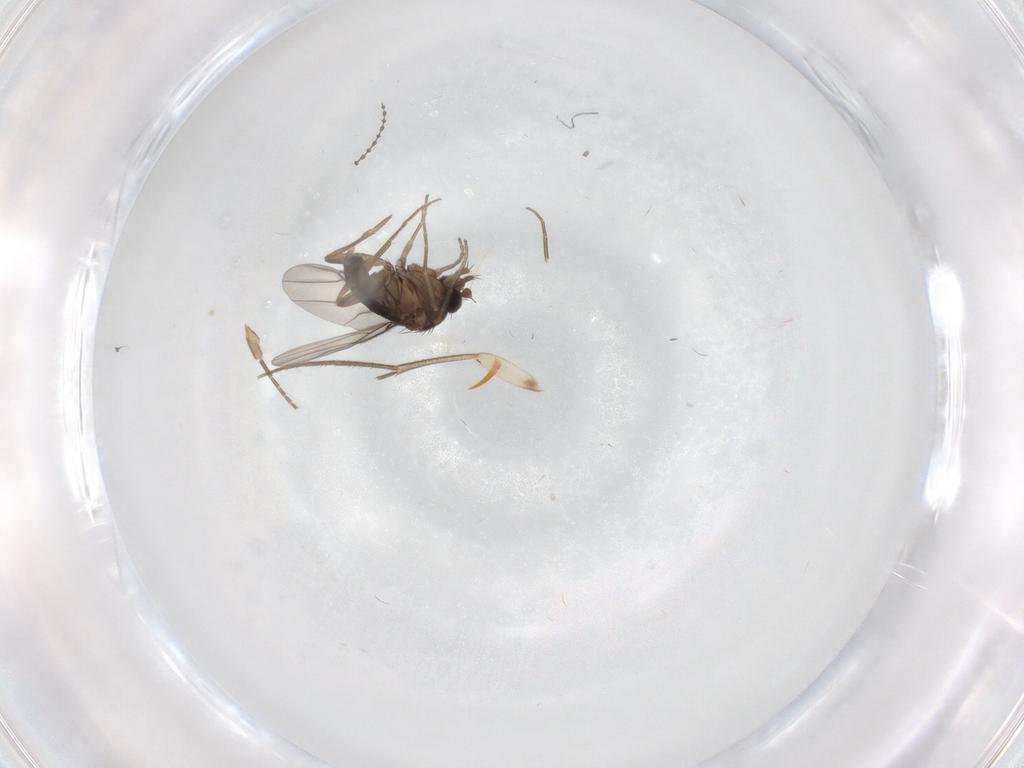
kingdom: Animalia
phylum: Arthropoda
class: Insecta
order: Diptera
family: Phoridae
